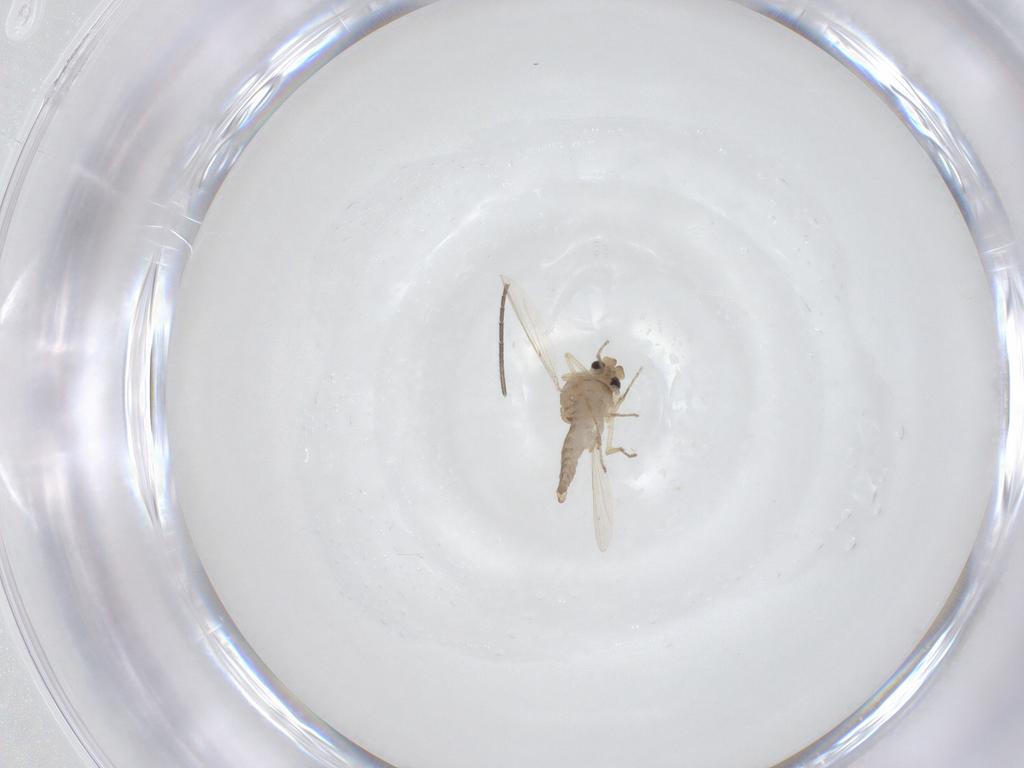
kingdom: Animalia
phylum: Arthropoda
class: Insecta
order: Diptera
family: Ceratopogonidae
